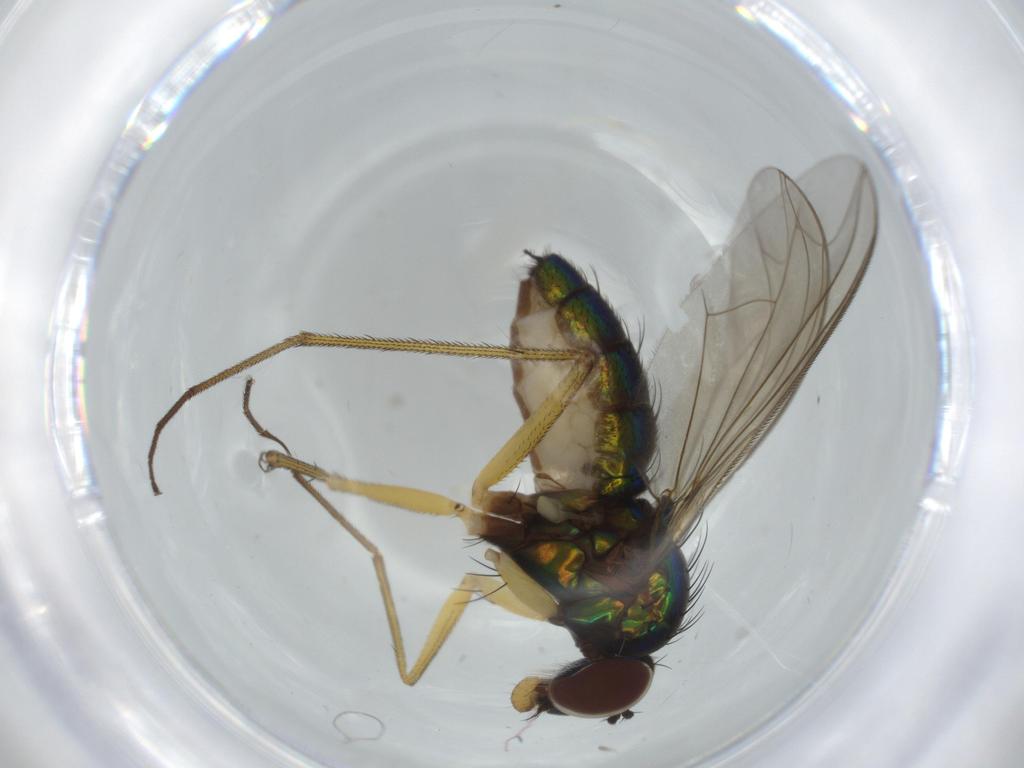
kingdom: Animalia
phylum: Arthropoda
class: Insecta
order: Diptera
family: Dolichopodidae
